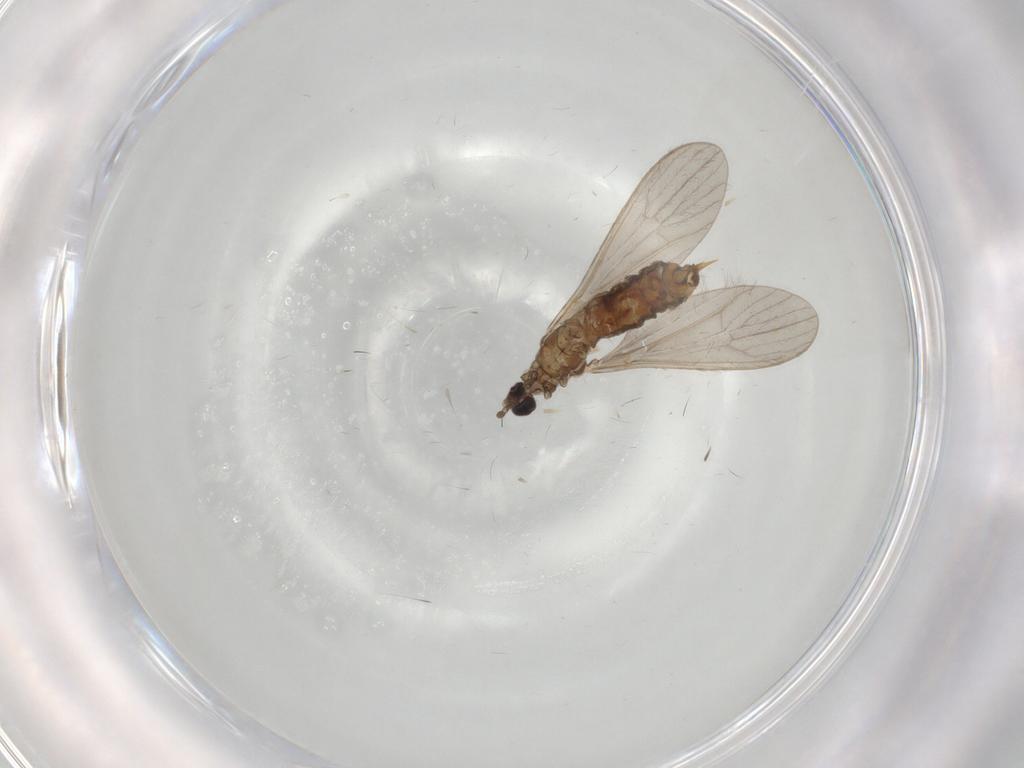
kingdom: Animalia
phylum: Arthropoda
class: Insecta
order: Diptera
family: Limoniidae
